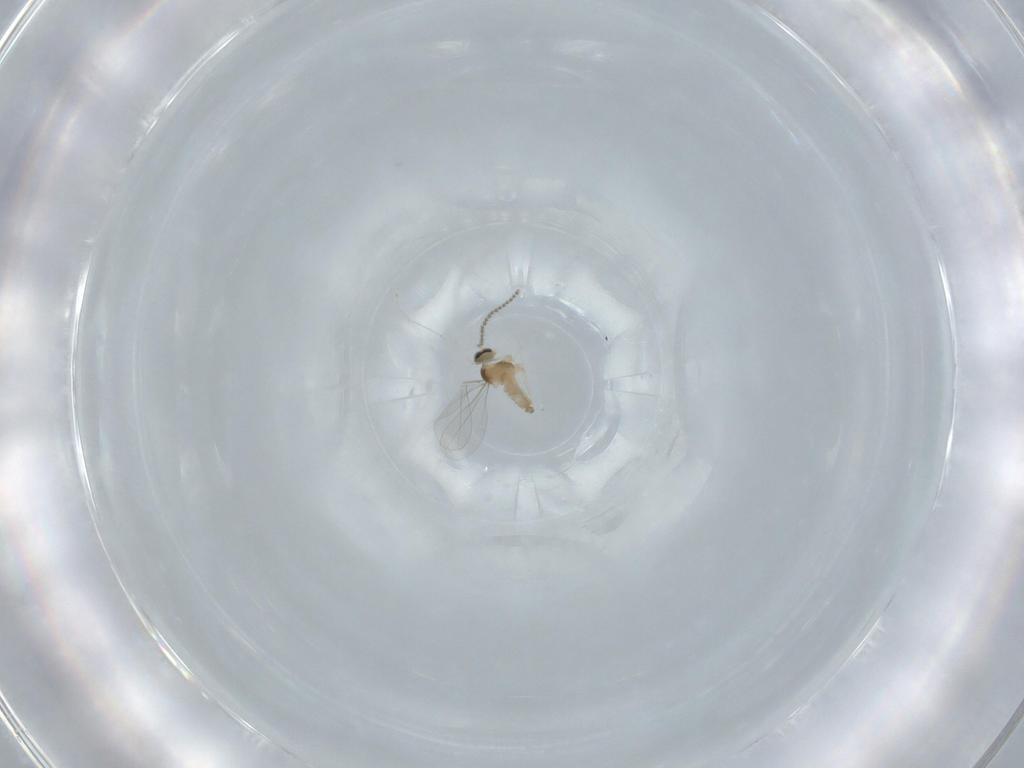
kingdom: Animalia
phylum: Arthropoda
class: Insecta
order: Diptera
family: Cecidomyiidae
